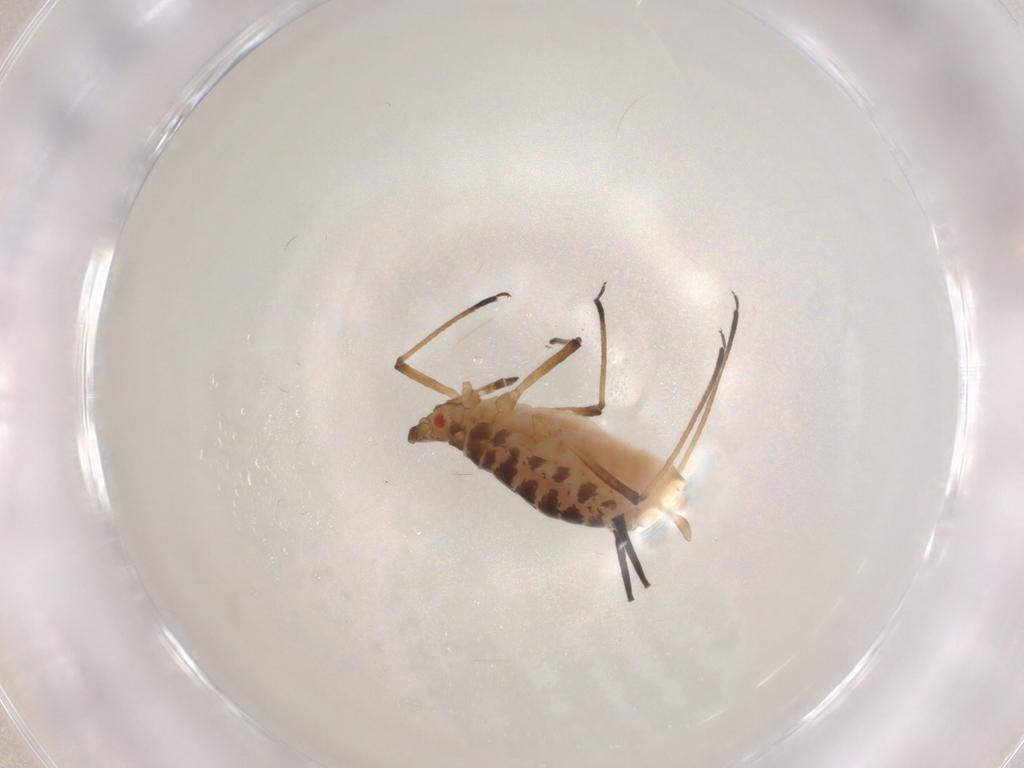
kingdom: Animalia
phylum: Arthropoda
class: Insecta
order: Hemiptera
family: Aphididae
